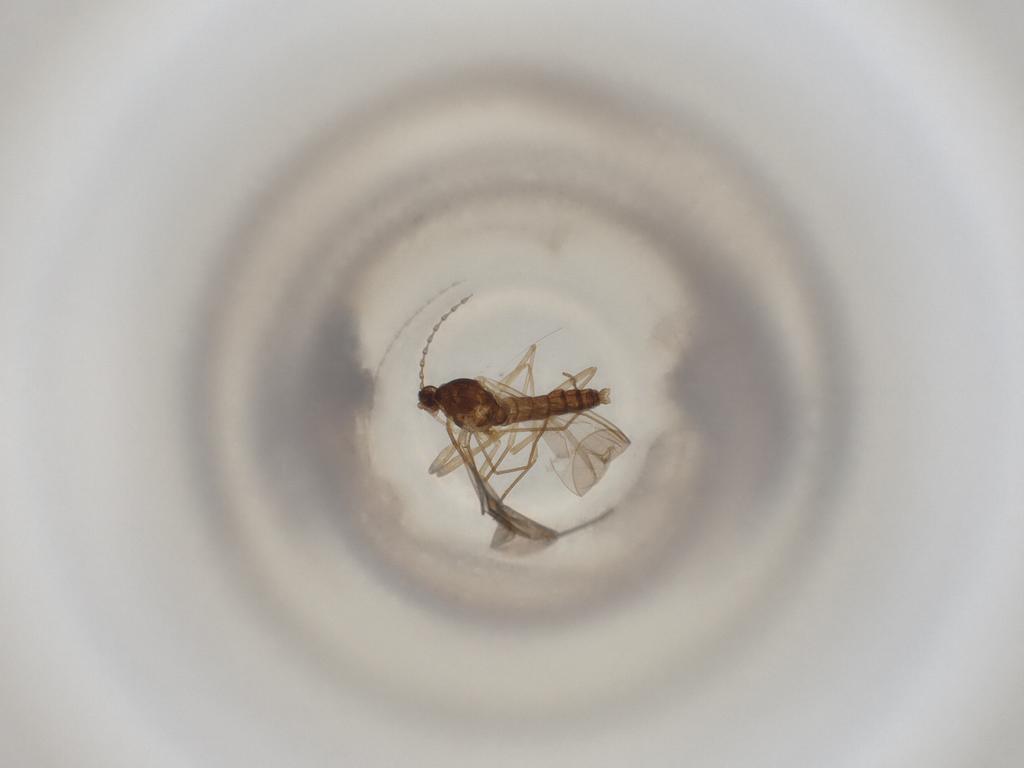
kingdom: Animalia
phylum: Arthropoda
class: Insecta
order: Diptera
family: Cecidomyiidae
